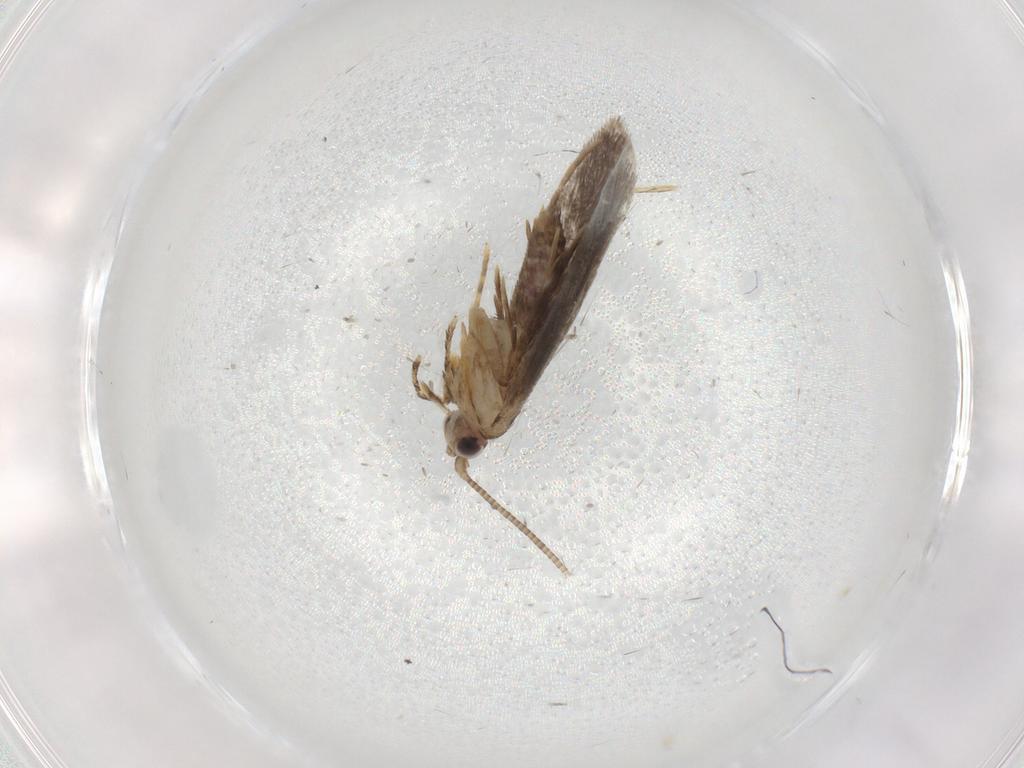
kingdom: Animalia
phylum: Arthropoda
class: Insecta
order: Lepidoptera
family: Nepticulidae
